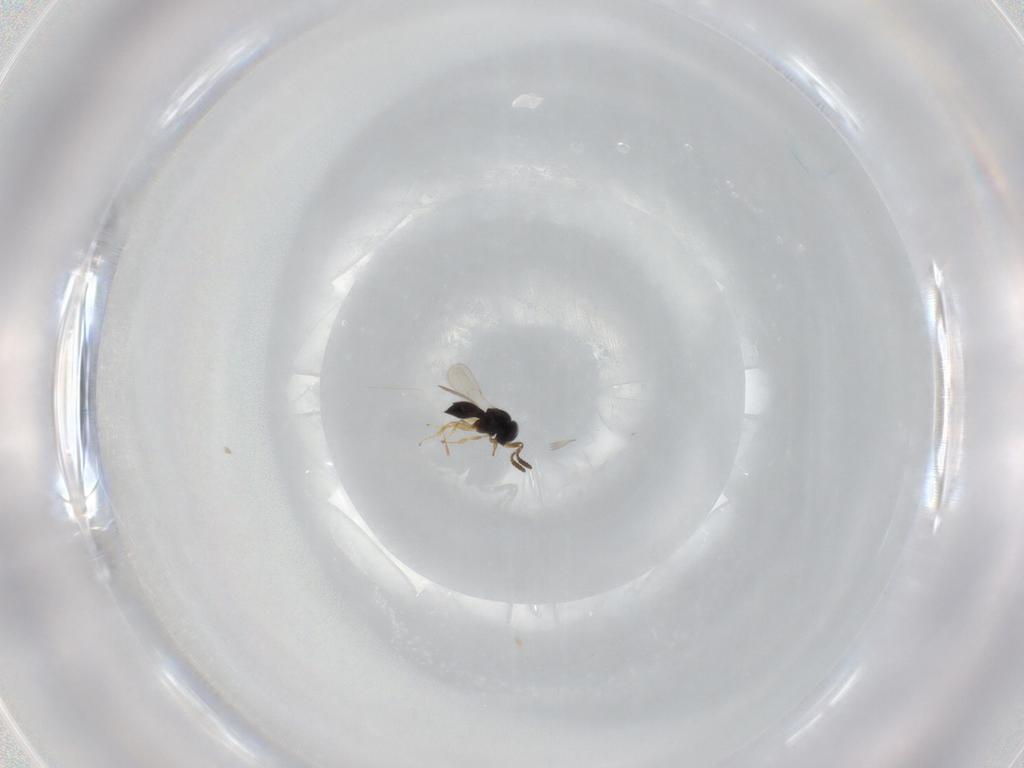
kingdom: Animalia
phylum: Arthropoda
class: Insecta
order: Hymenoptera
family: Scelionidae
